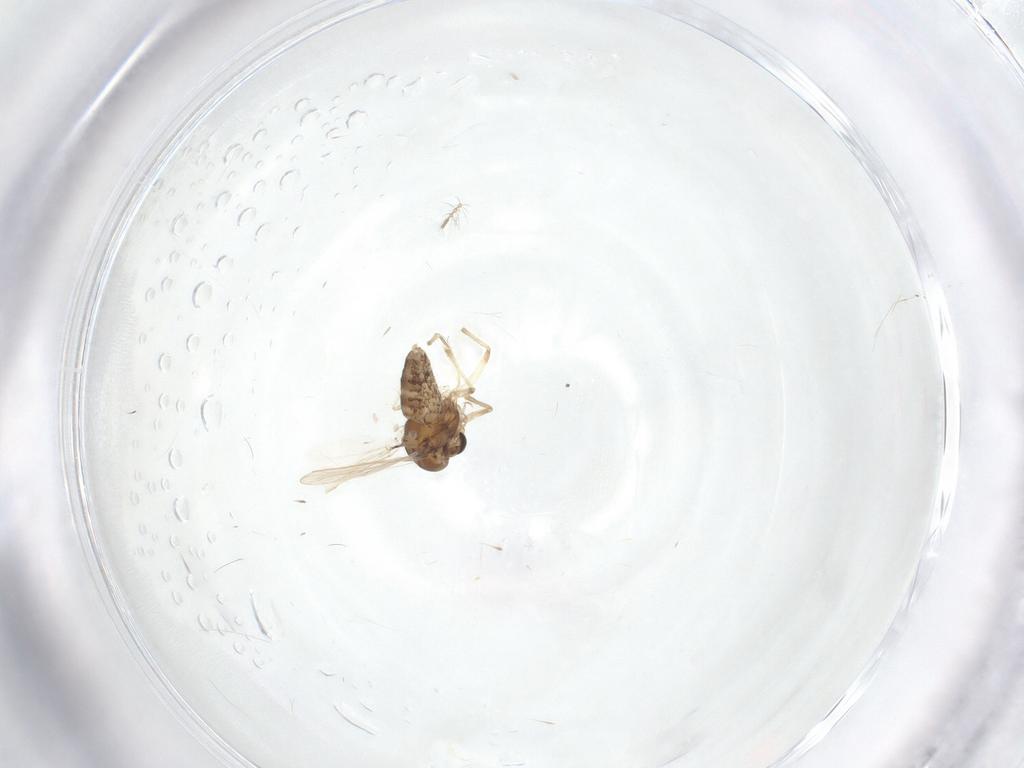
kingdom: Animalia
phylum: Arthropoda
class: Insecta
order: Diptera
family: Chironomidae
